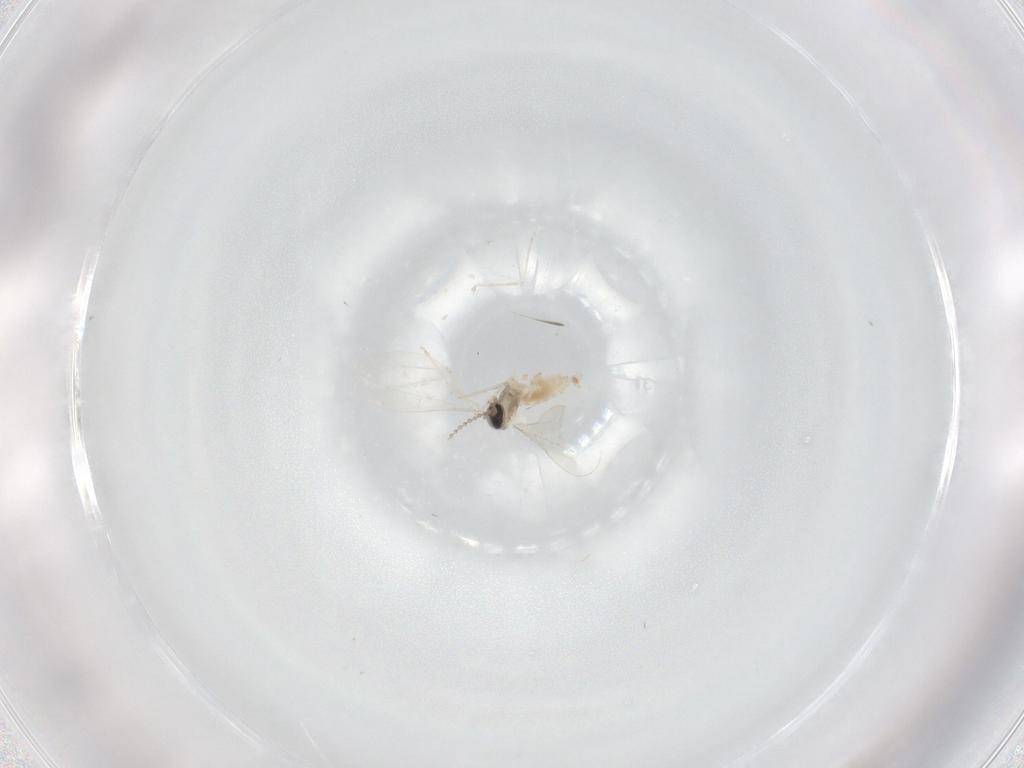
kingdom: Animalia
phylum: Arthropoda
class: Insecta
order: Diptera
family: Cecidomyiidae
